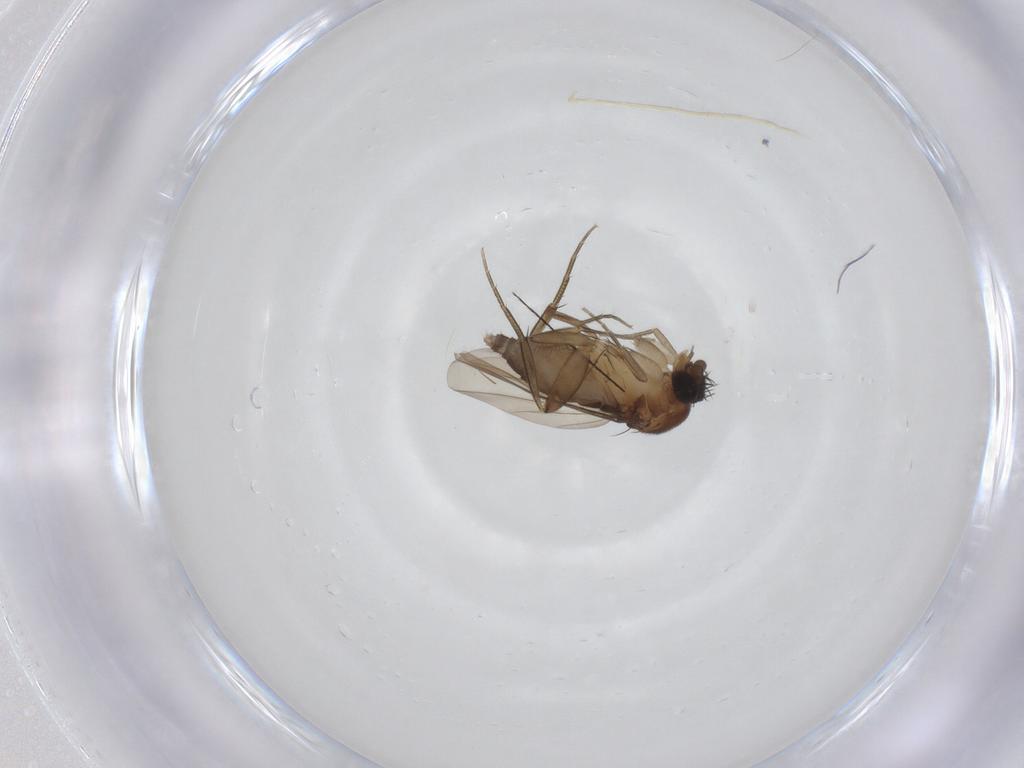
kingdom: Animalia
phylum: Arthropoda
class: Insecta
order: Diptera
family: Phoridae
